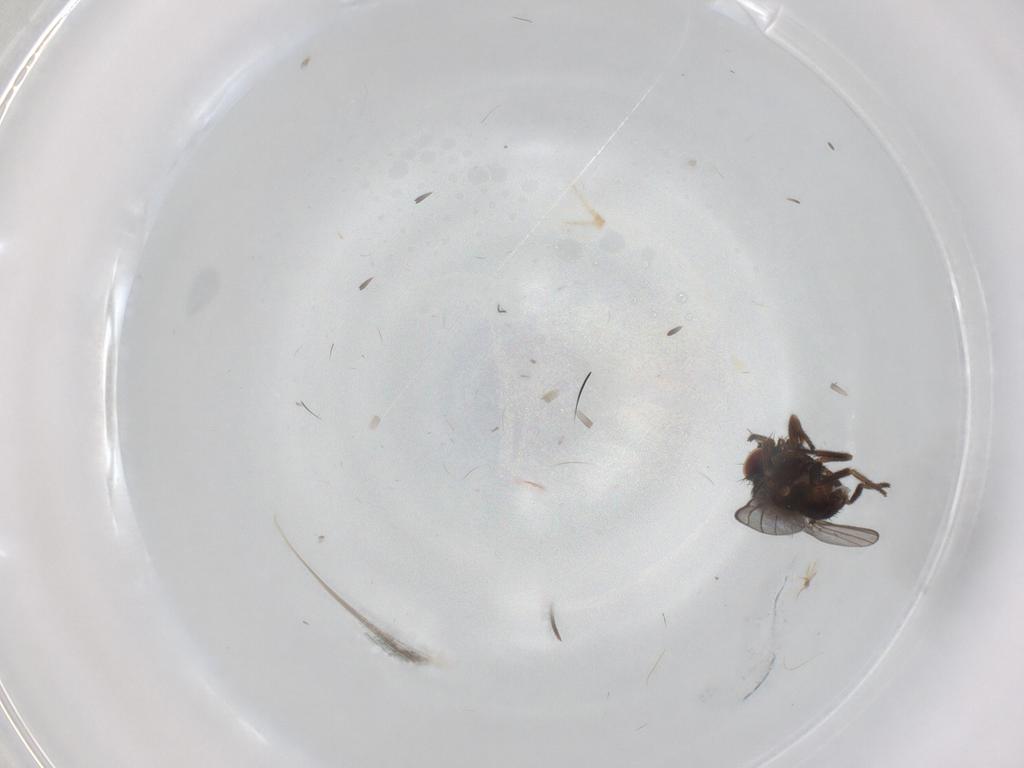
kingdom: Animalia
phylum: Arthropoda
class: Insecta
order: Diptera
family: Milichiidae
